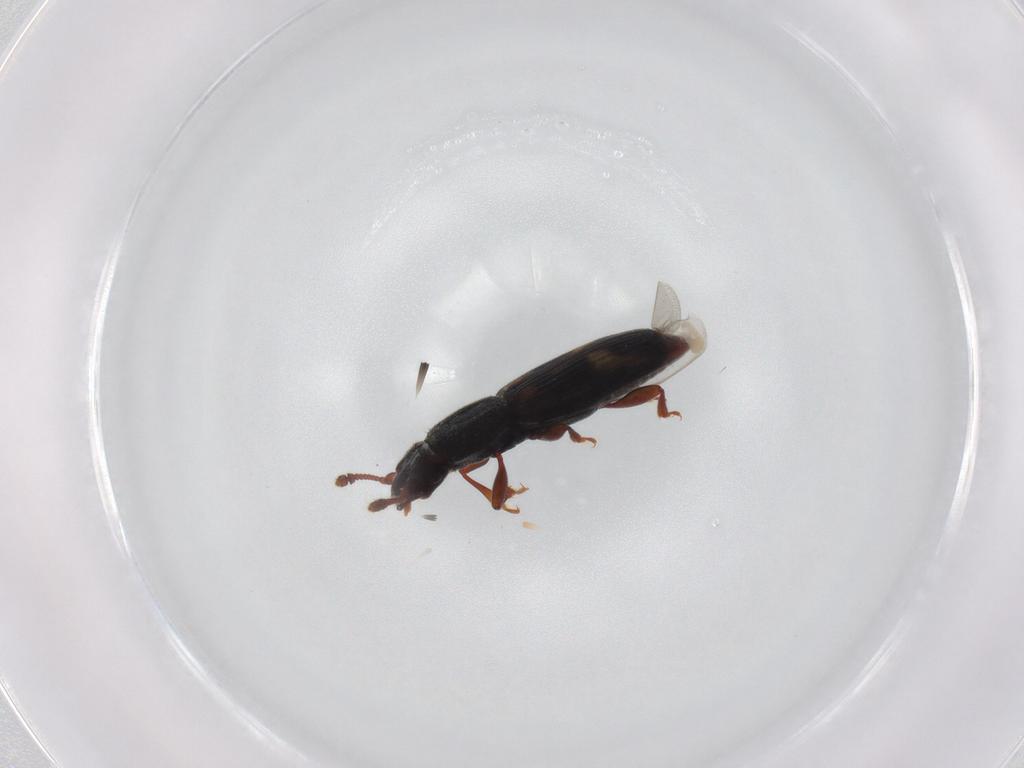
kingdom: Animalia
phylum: Arthropoda
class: Insecta
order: Coleoptera
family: Monotomidae
